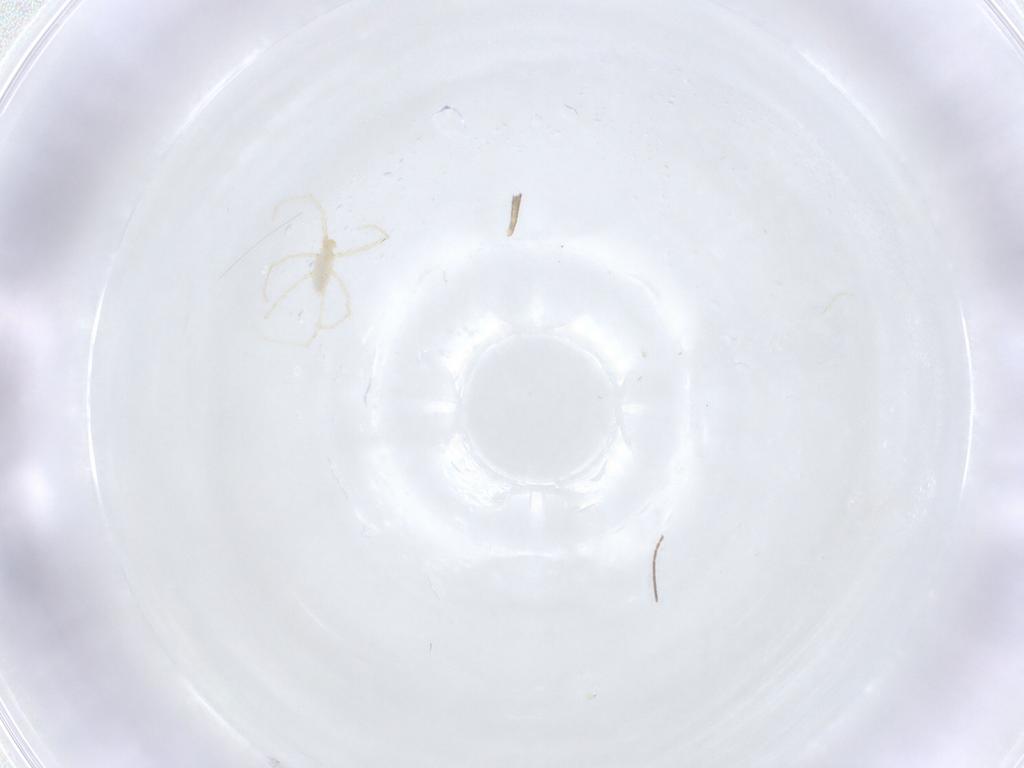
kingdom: Animalia
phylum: Arthropoda
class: Arachnida
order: Trombidiformes
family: Erythraeidae
